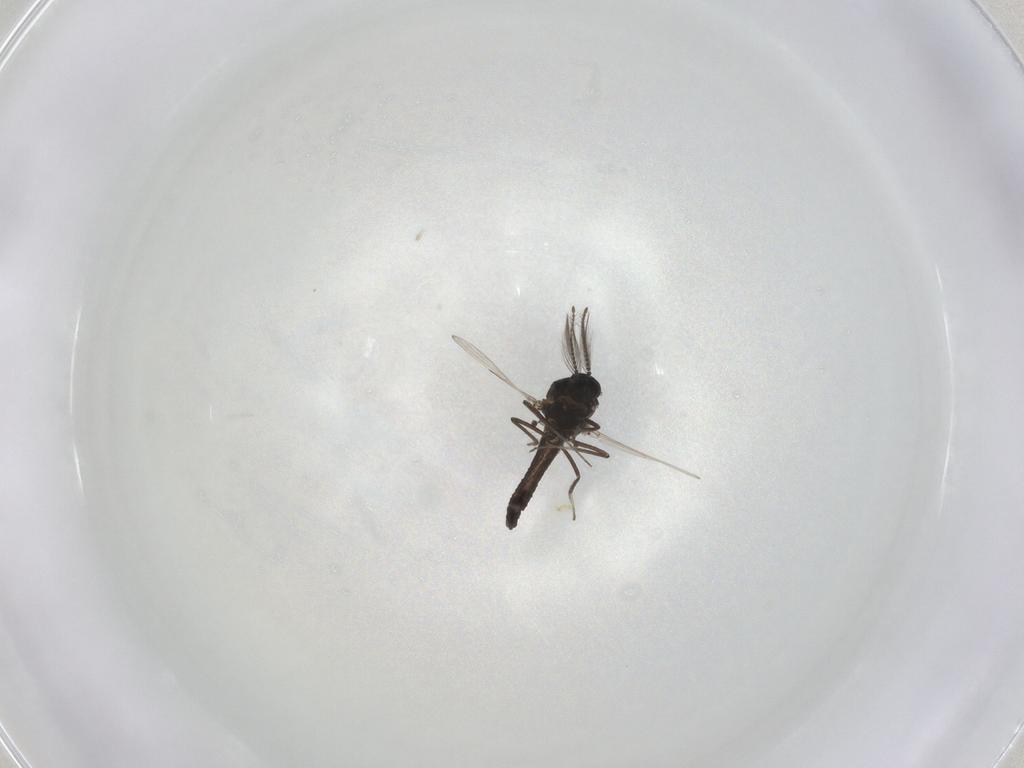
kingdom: Animalia
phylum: Arthropoda
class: Insecta
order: Diptera
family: Ceratopogonidae
